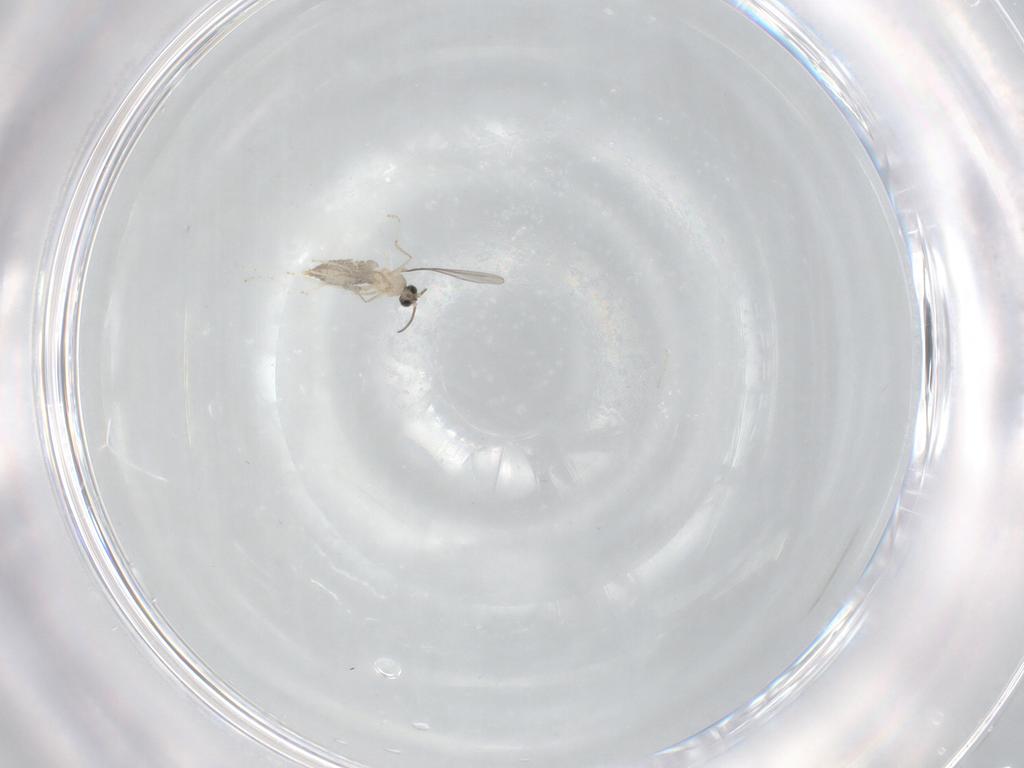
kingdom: Animalia
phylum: Arthropoda
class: Insecta
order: Diptera
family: Cecidomyiidae
